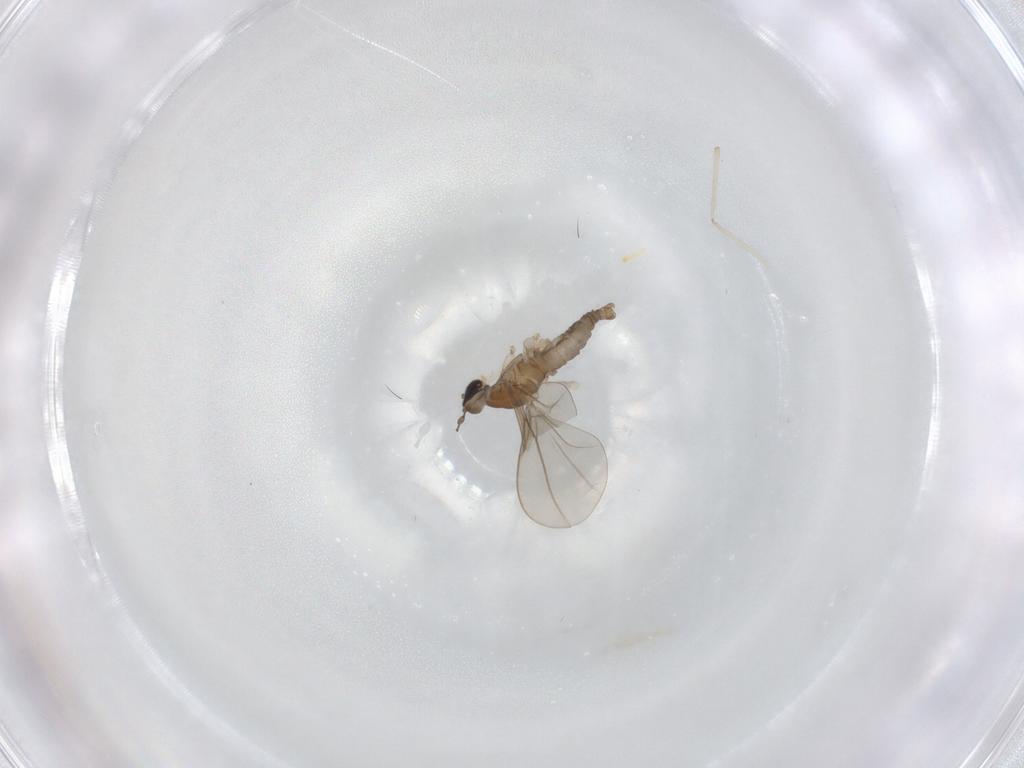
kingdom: Animalia
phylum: Arthropoda
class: Insecta
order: Diptera
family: Cecidomyiidae
